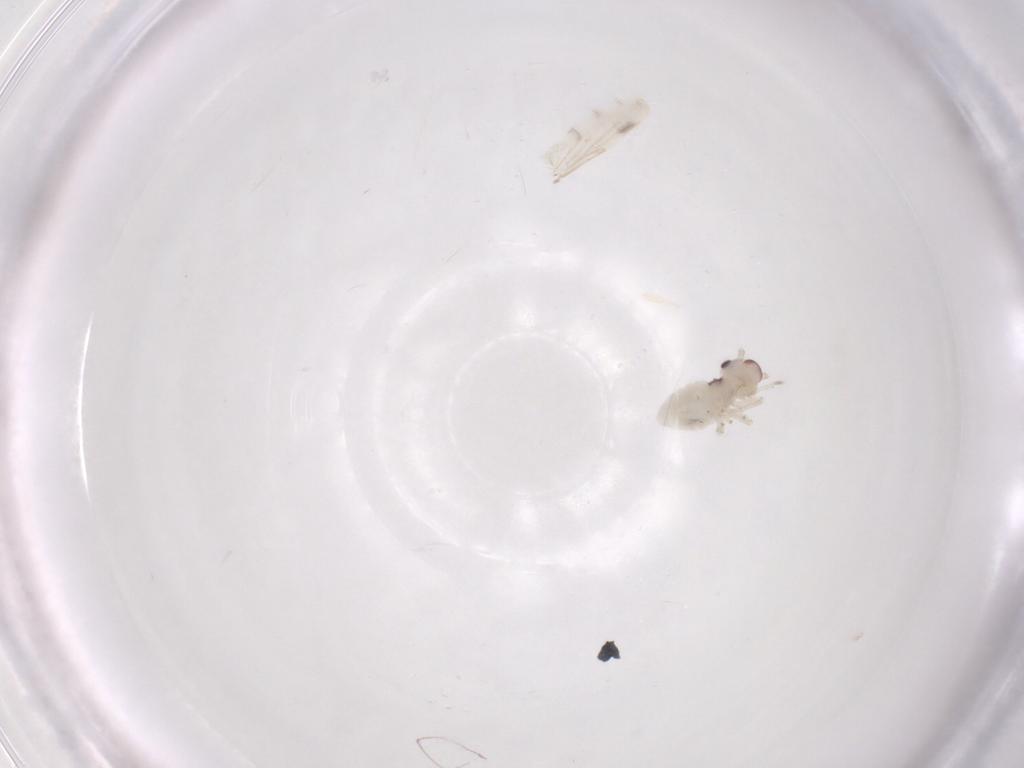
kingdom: Animalia
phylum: Arthropoda
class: Insecta
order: Psocodea
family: Amphipsocidae
